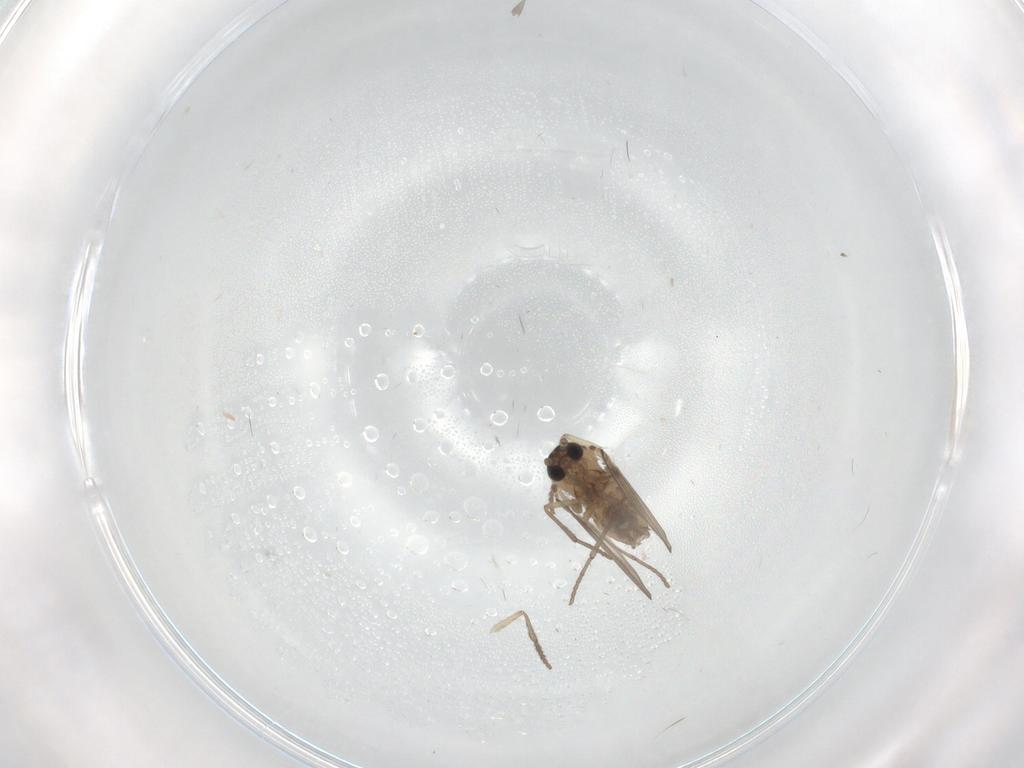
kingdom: Animalia
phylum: Arthropoda
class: Insecta
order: Diptera
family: Psychodidae
